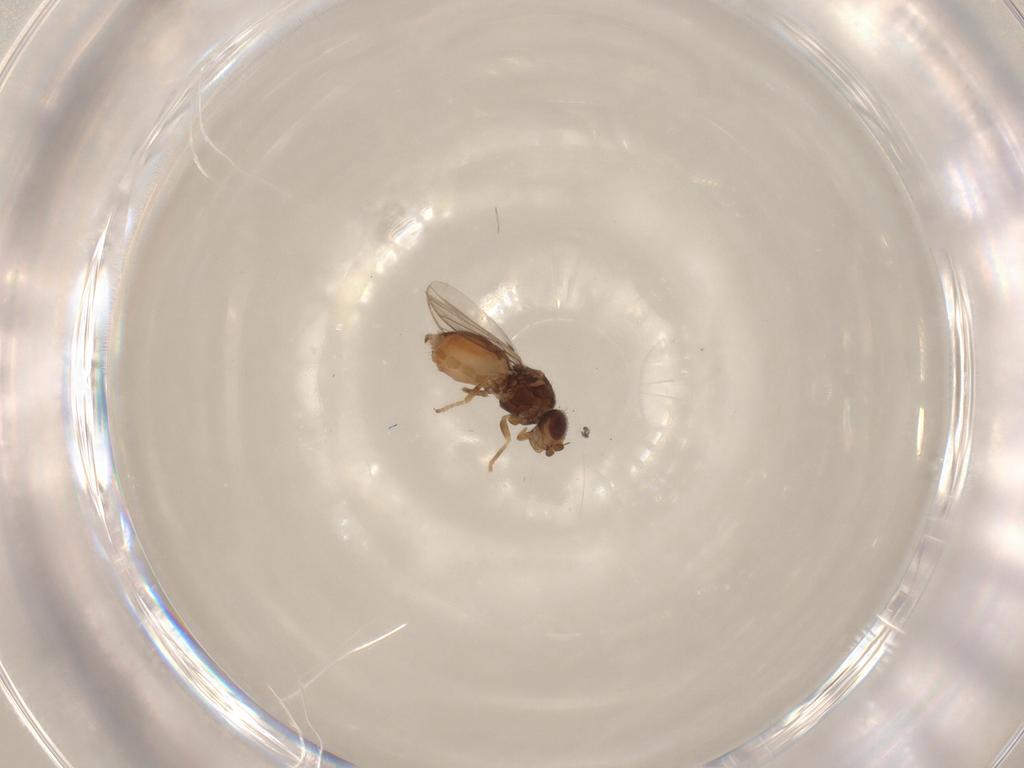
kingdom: Animalia
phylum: Arthropoda
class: Insecta
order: Diptera
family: Chloropidae
